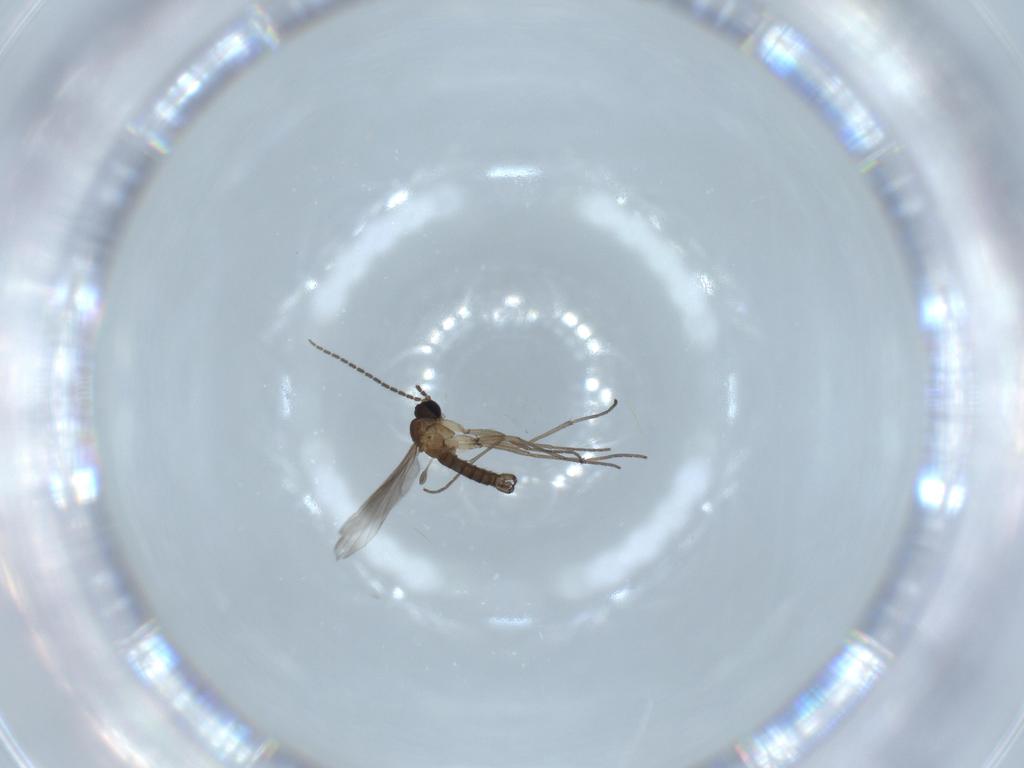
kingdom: Animalia
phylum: Arthropoda
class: Insecta
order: Diptera
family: Sciaridae
